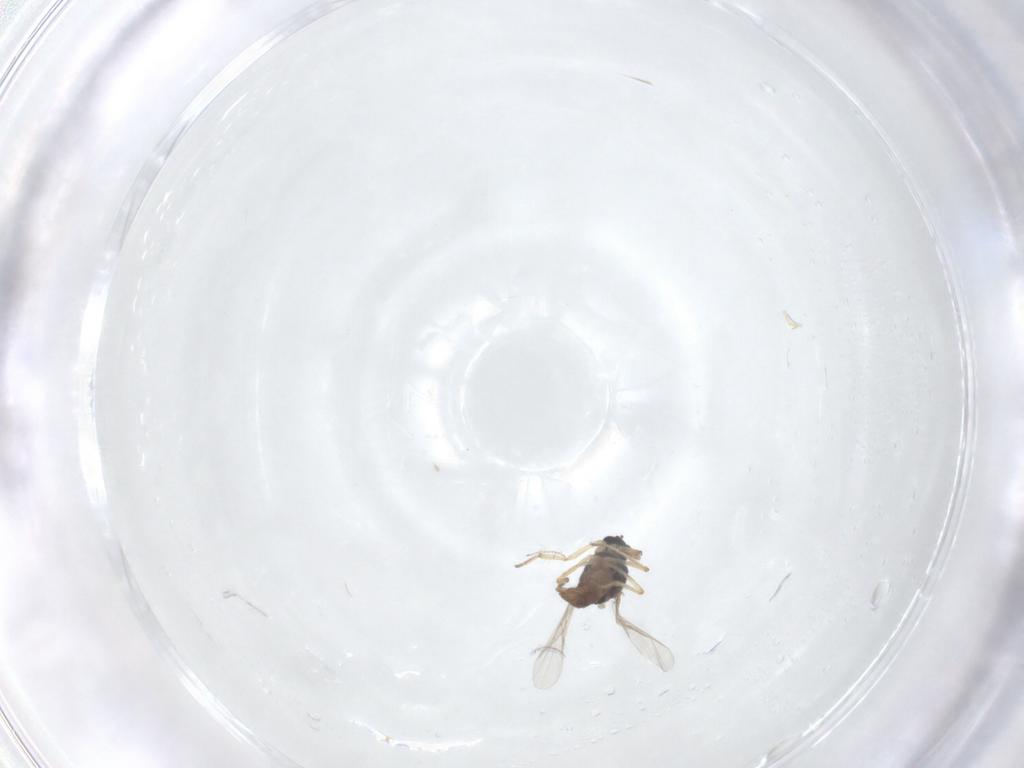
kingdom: Animalia
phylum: Arthropoda
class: Insecta
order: Diptera
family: Ceratopogonidae
